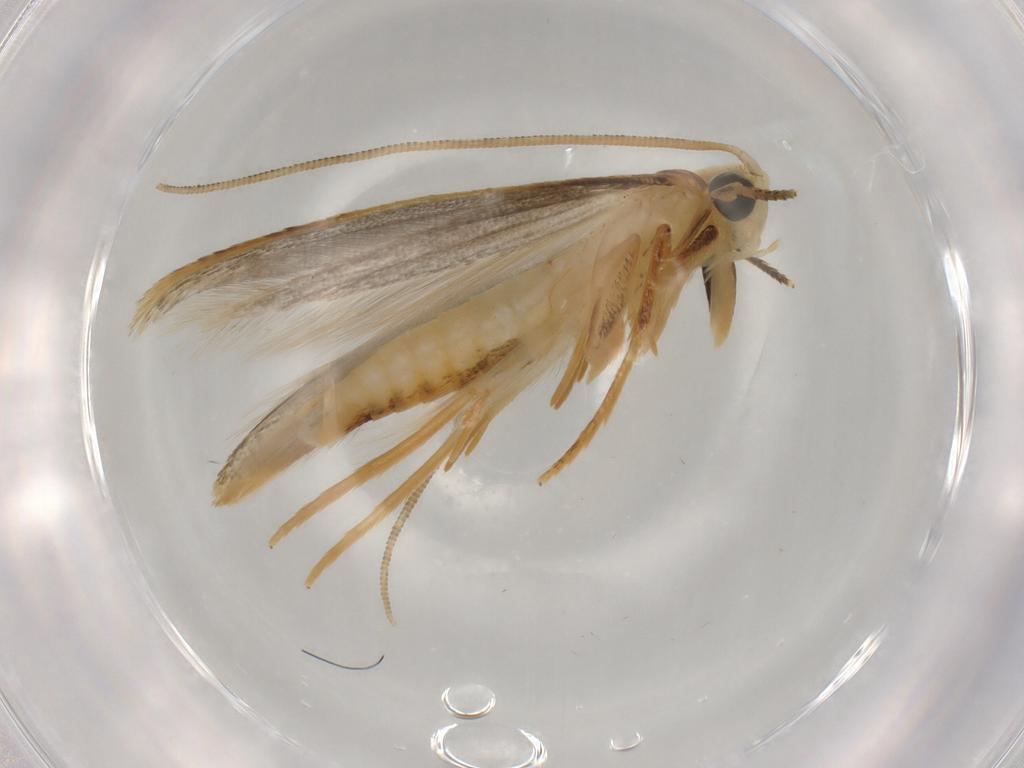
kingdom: Animalia
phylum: Arthropoda
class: Insecta
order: Lepidoptera
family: Tineidae
